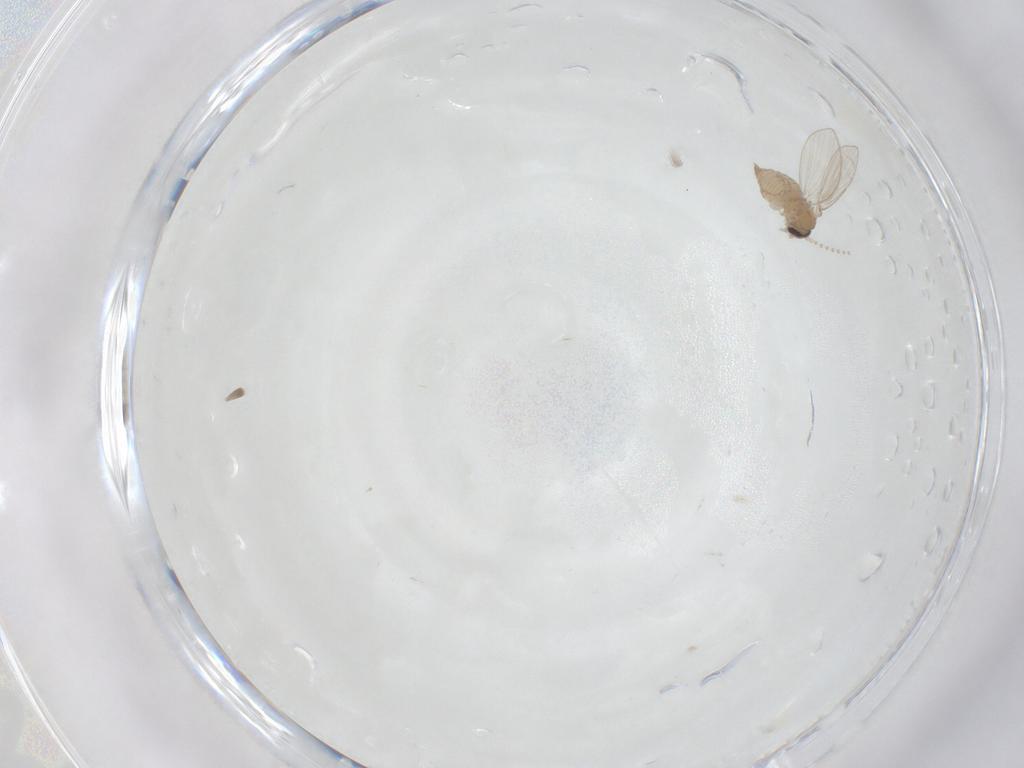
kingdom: Animalia
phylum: Arthropoda
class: Insecta
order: Diptera
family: Psychodidae
